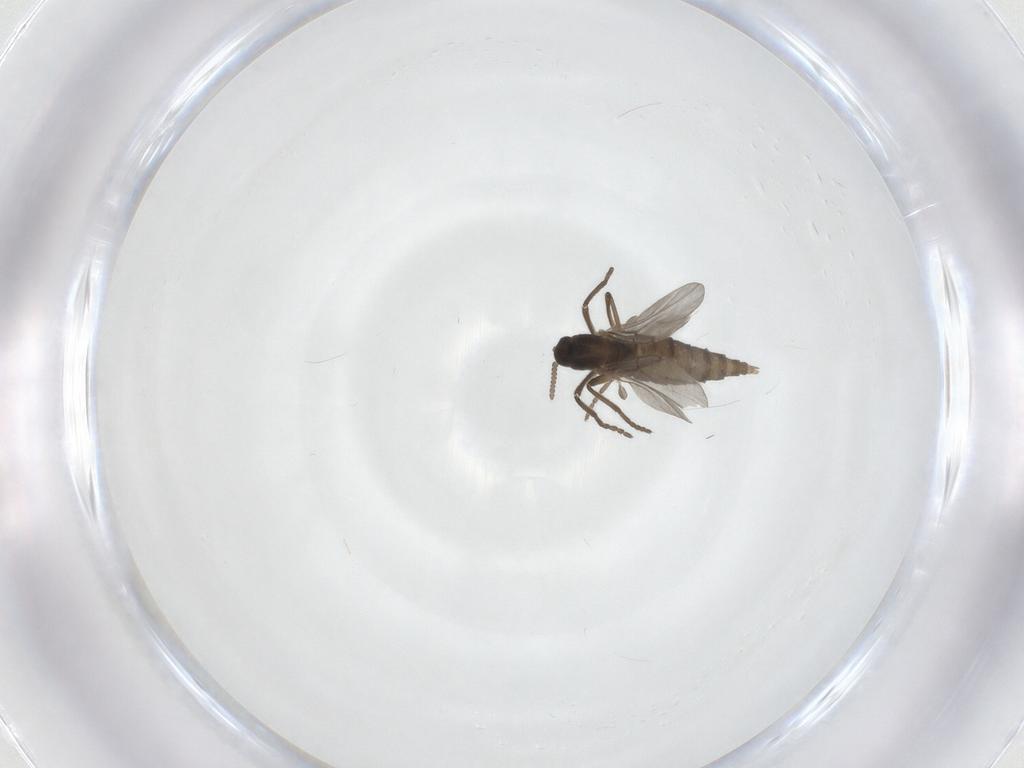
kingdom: Animalia
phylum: Arthropoda
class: Insecta
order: Diptera
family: Cecidomyiidae
